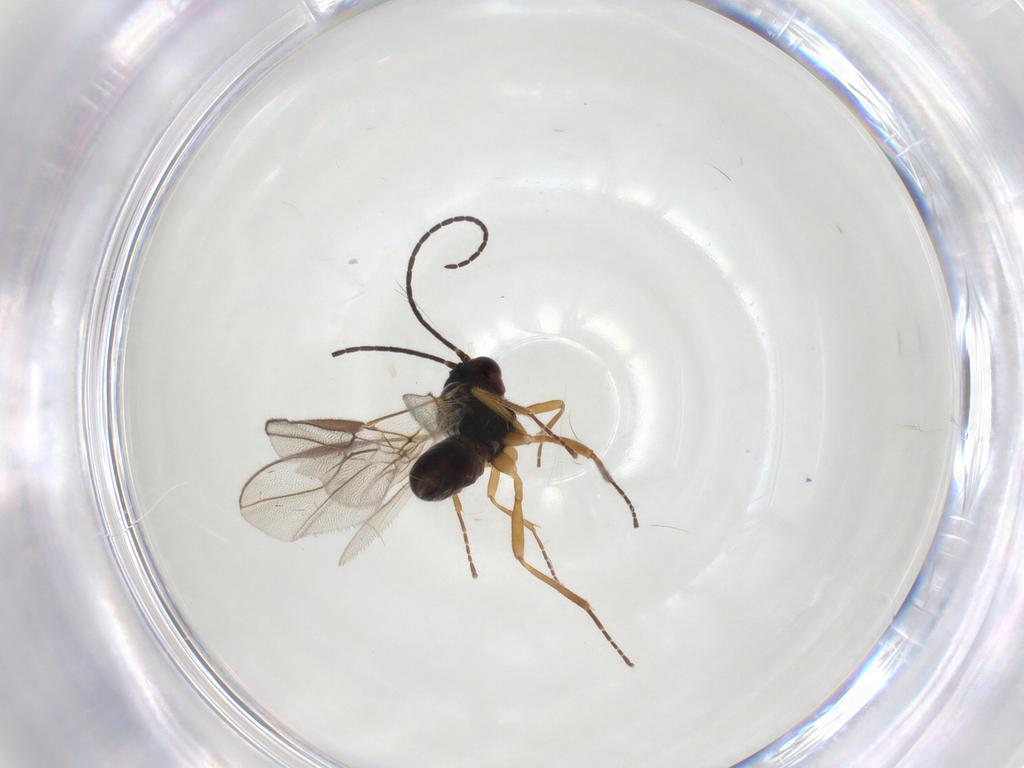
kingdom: Animalia
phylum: Arthropoda
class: Insecta
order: Hymenoptera
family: Braconidae
